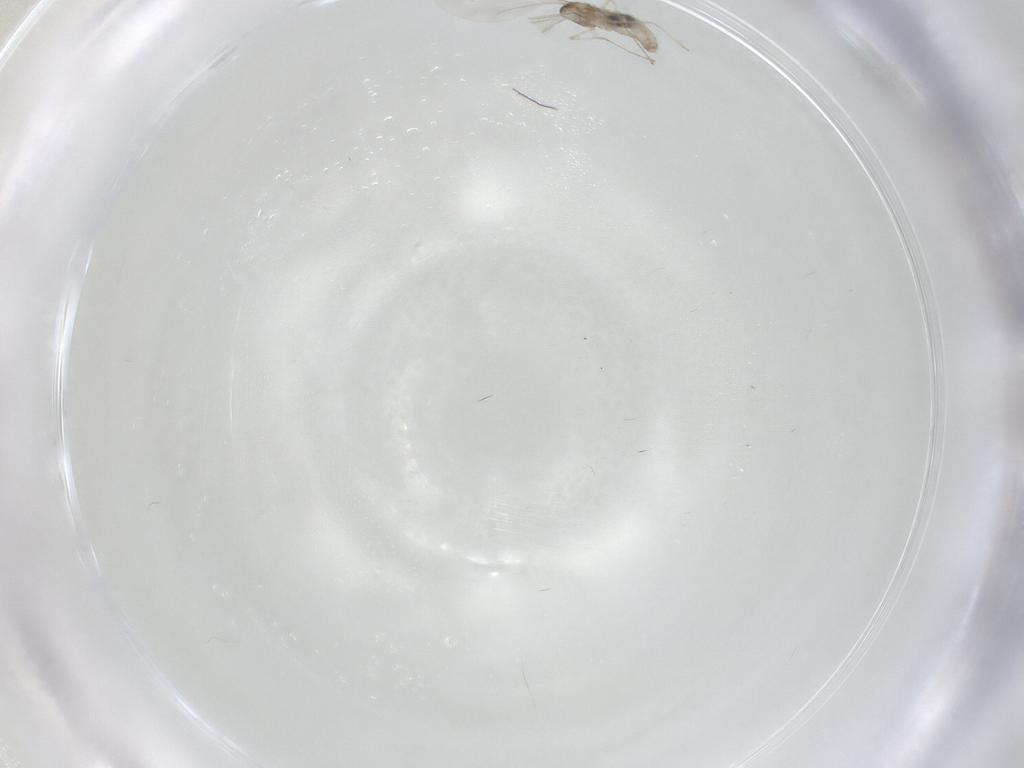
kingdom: Animalia
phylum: Arthropoda
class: Insecta
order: Diptera
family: Cecidomyiidae
